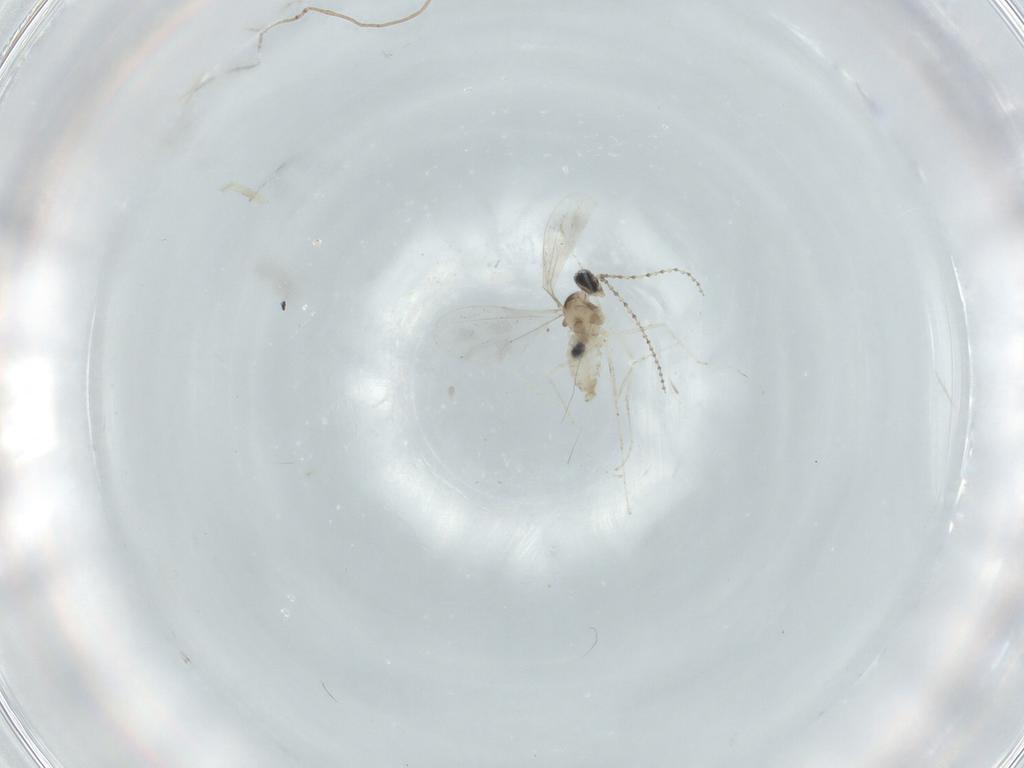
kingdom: Animalia
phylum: Arthropoda
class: Insecta
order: Diptera
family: Cecidomyiidae
